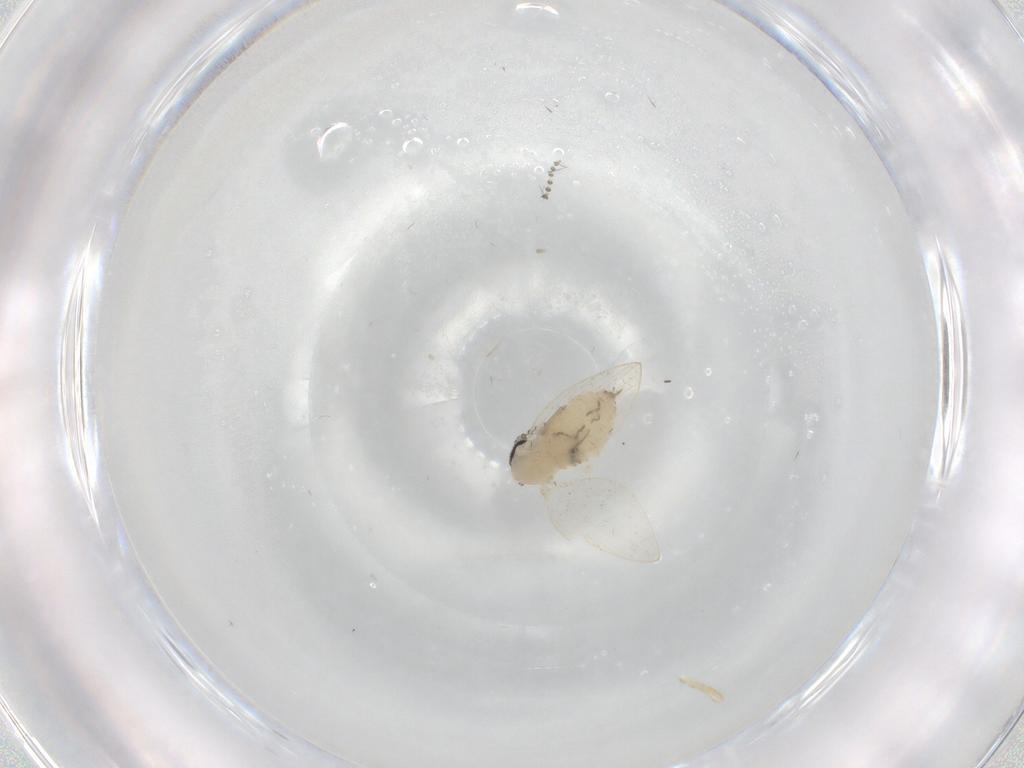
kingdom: Animalia
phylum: Arthropoda
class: Insecta
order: Diptera
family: Psychodidae
